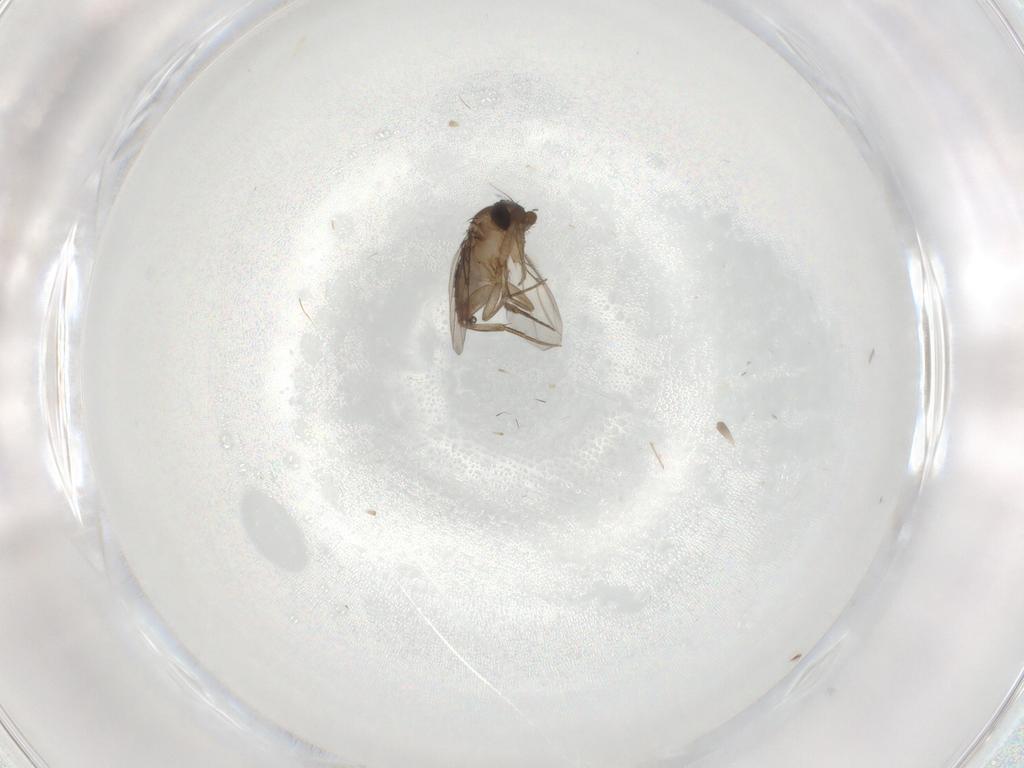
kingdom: Animalia
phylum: Arthropoda
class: Insecta
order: Diptera
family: Phoridae
